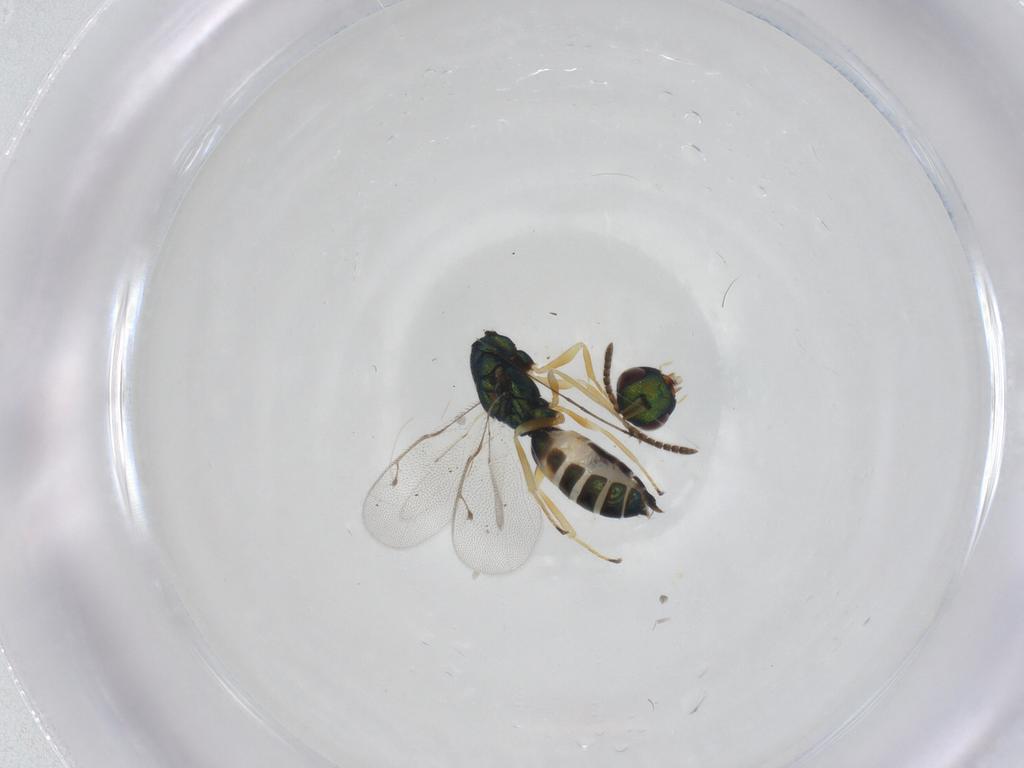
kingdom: Animalia
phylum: Arthropoda
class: Insecta
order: Hymenoptera
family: Pteromalidae
